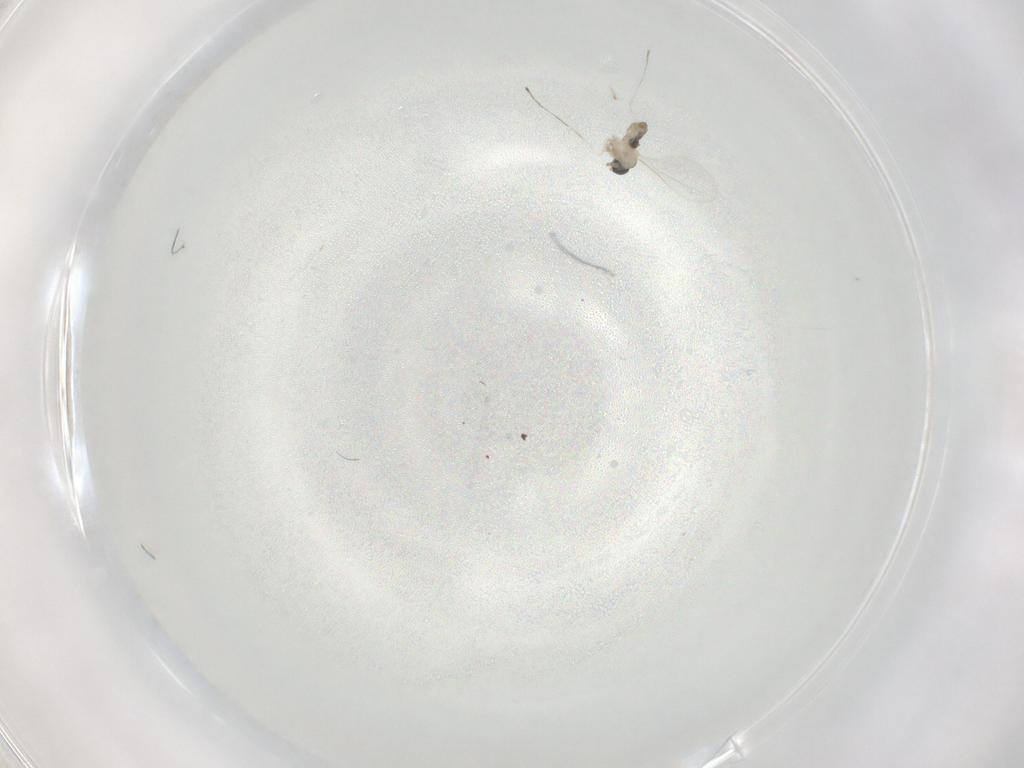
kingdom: Animalia
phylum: Arthropoda
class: Insecta
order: Diptera
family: Cecidomyiidae
